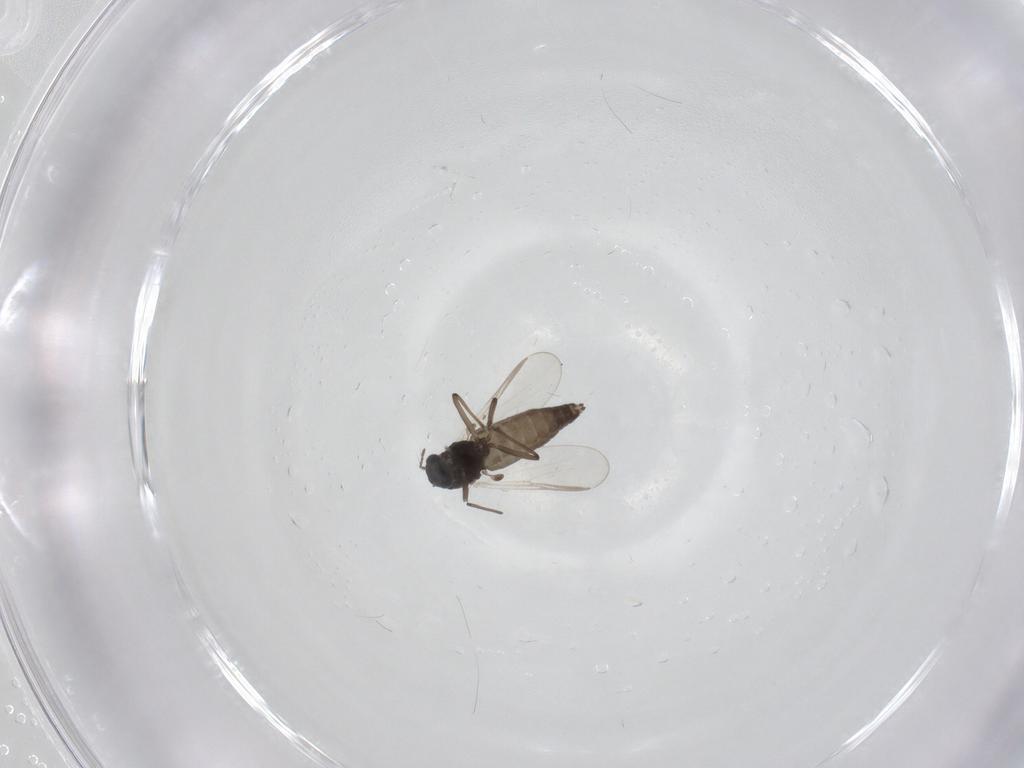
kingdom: Animalia
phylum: Arthropoda
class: Insecta
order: Diptera
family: Chironomidae
